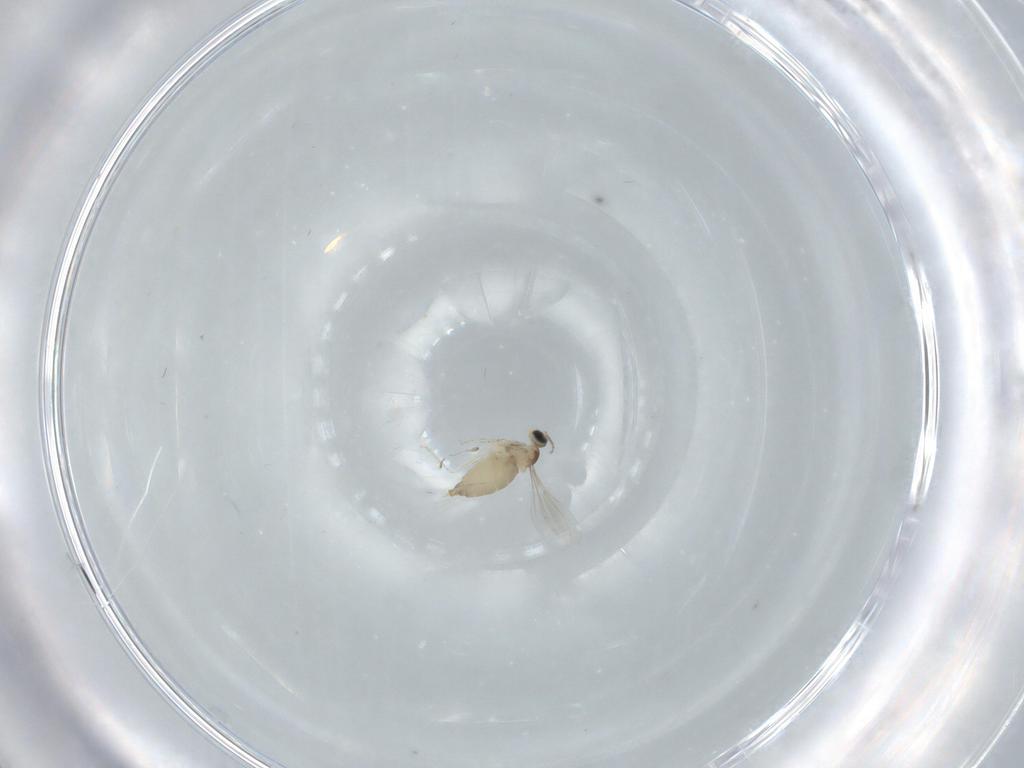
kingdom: Animalia
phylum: Arthropoda
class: Insecta
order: Diptera
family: Dolichopodidae
